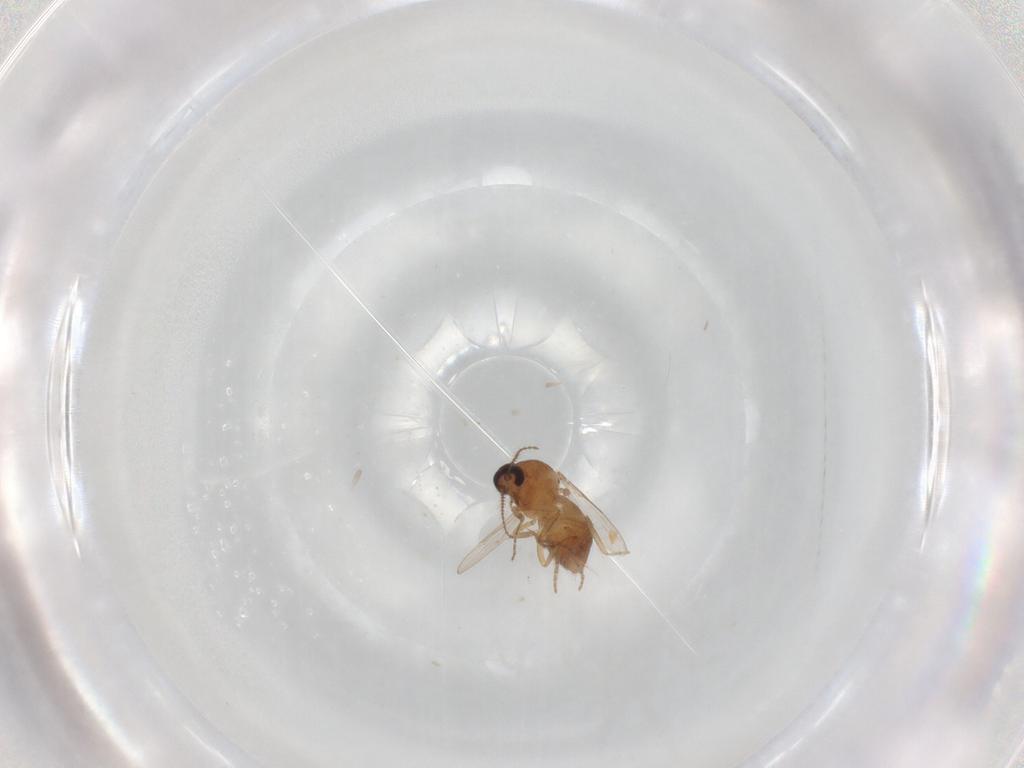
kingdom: Animalia
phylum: Arthropoda
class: Insecta
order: Diptera
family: Ceratopogonidae
